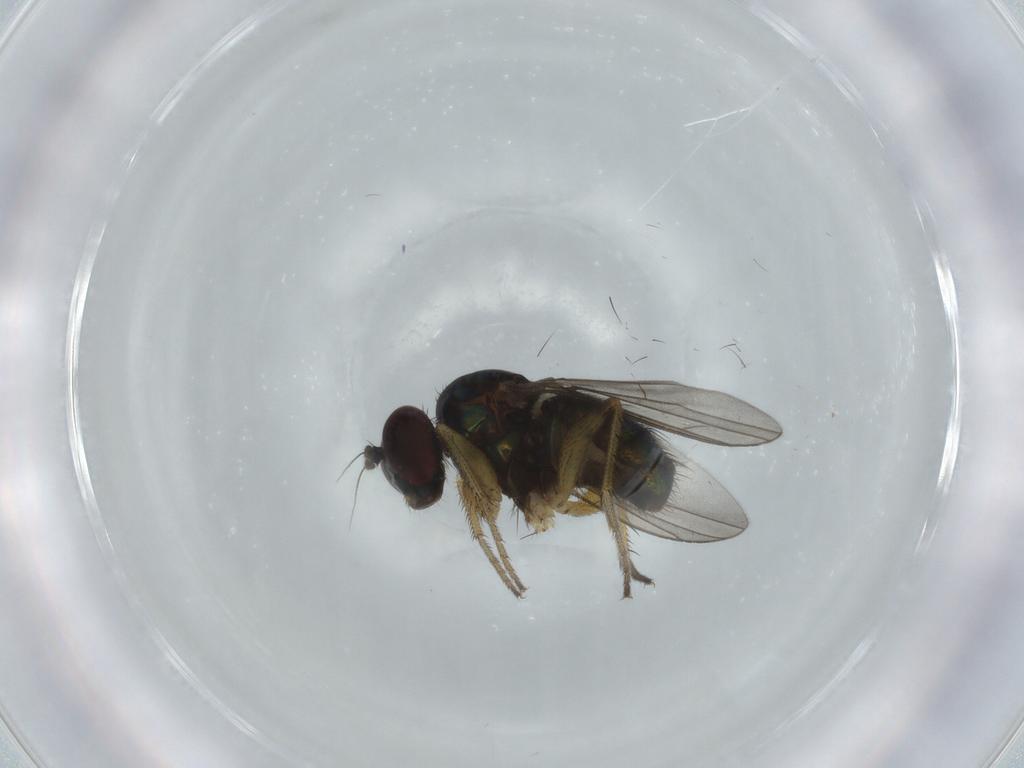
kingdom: Animalia
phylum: Arthropoda
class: Insecta
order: Diptera
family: Dolichopodidae
